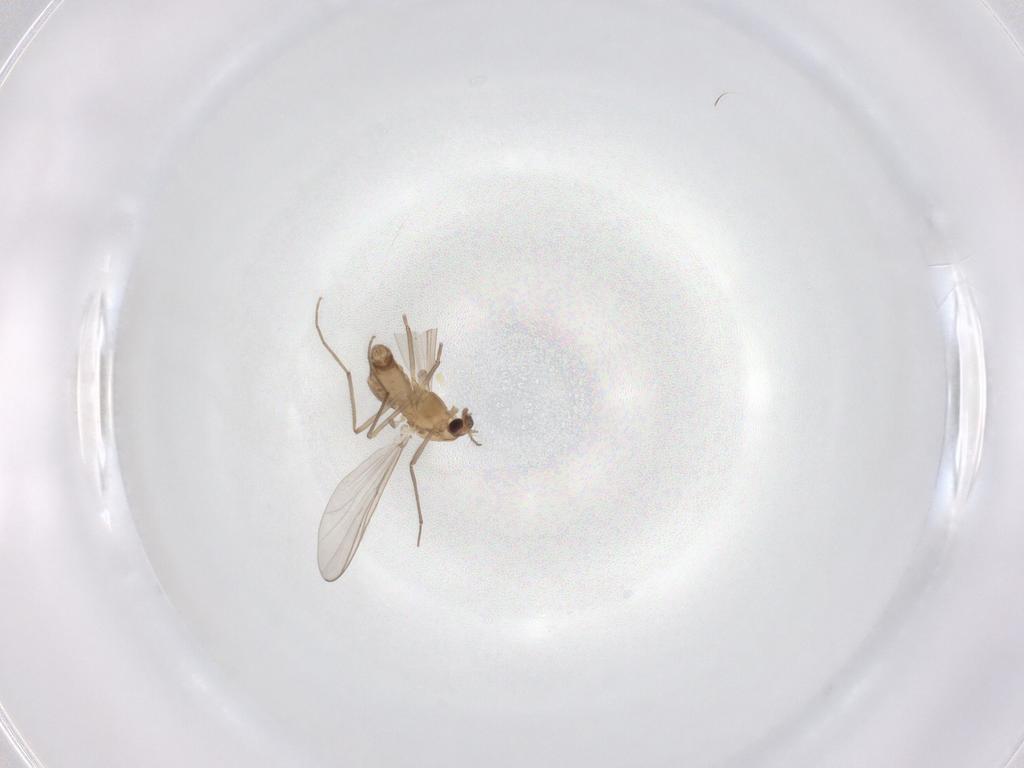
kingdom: Animalia
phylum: Arthropoda
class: Insecta
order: Diptera
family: Chironomidae
